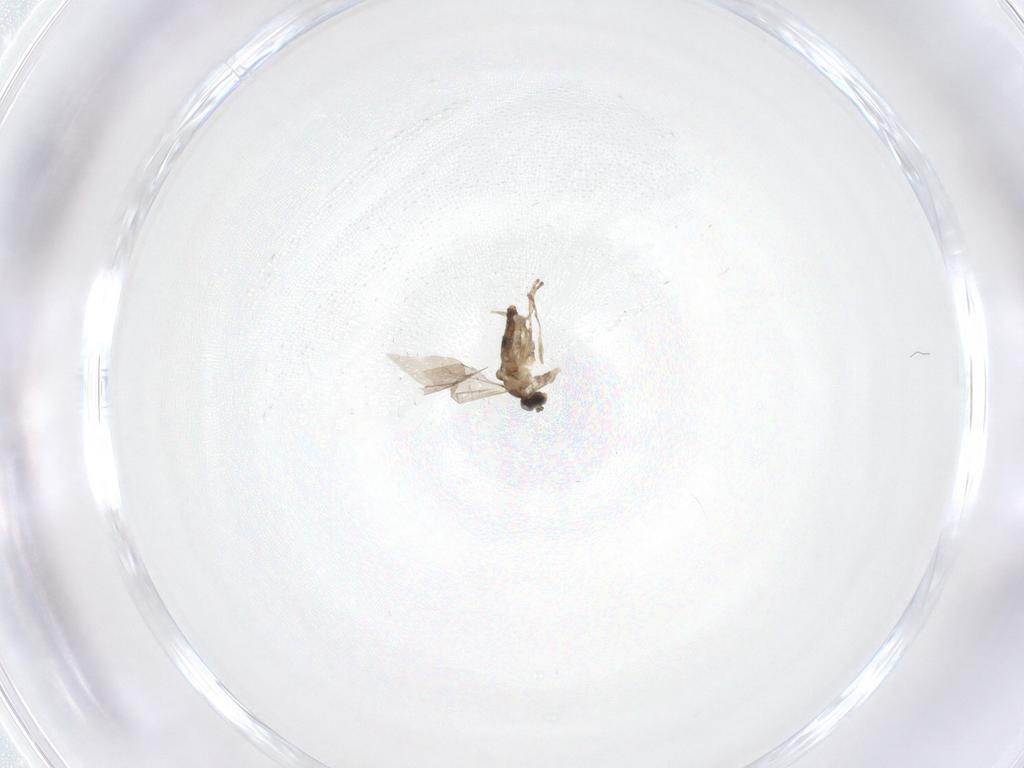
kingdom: Animalia
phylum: Arthropoda
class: Insecta
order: Diptera
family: Cecidomyiidae
